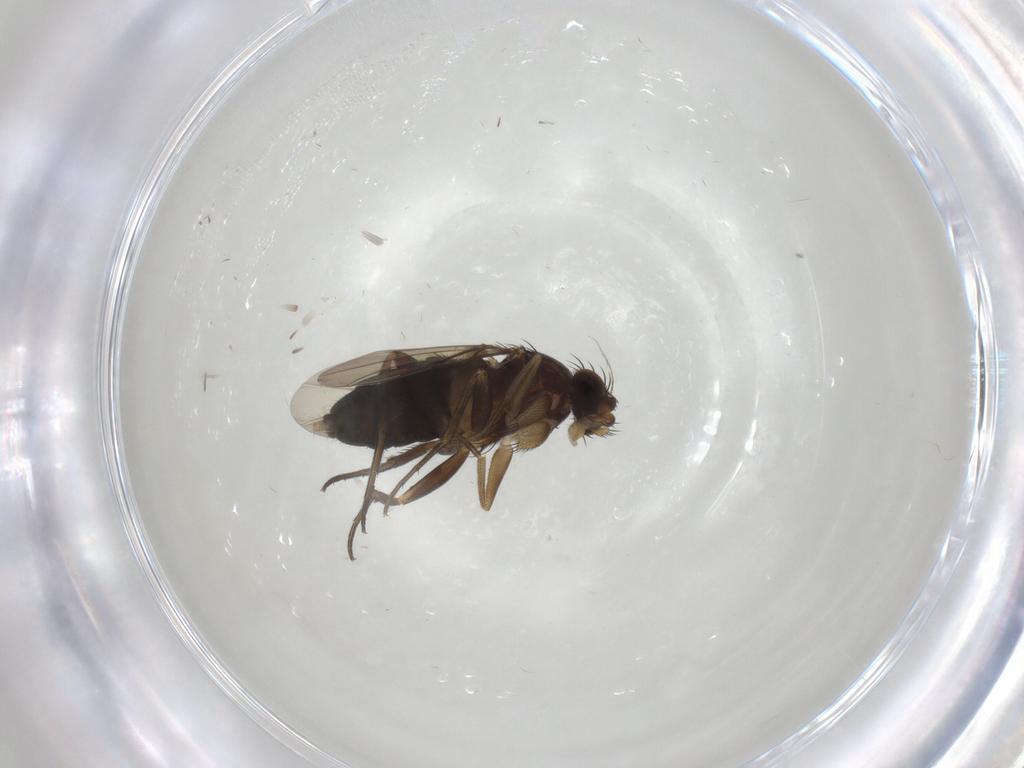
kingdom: Animalia
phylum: Arthropoda
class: Insecta
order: Diptera
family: Phoridae
